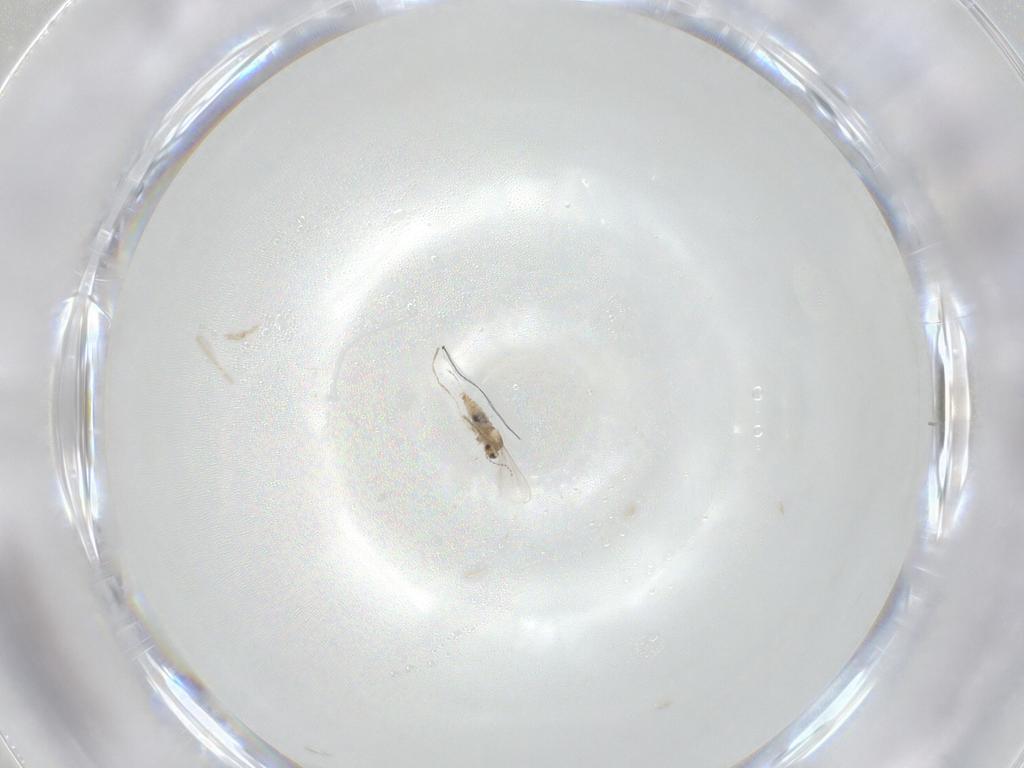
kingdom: Animalia
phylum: Arthropoda
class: Insecta
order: Diptera
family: Cecidomyiidae
